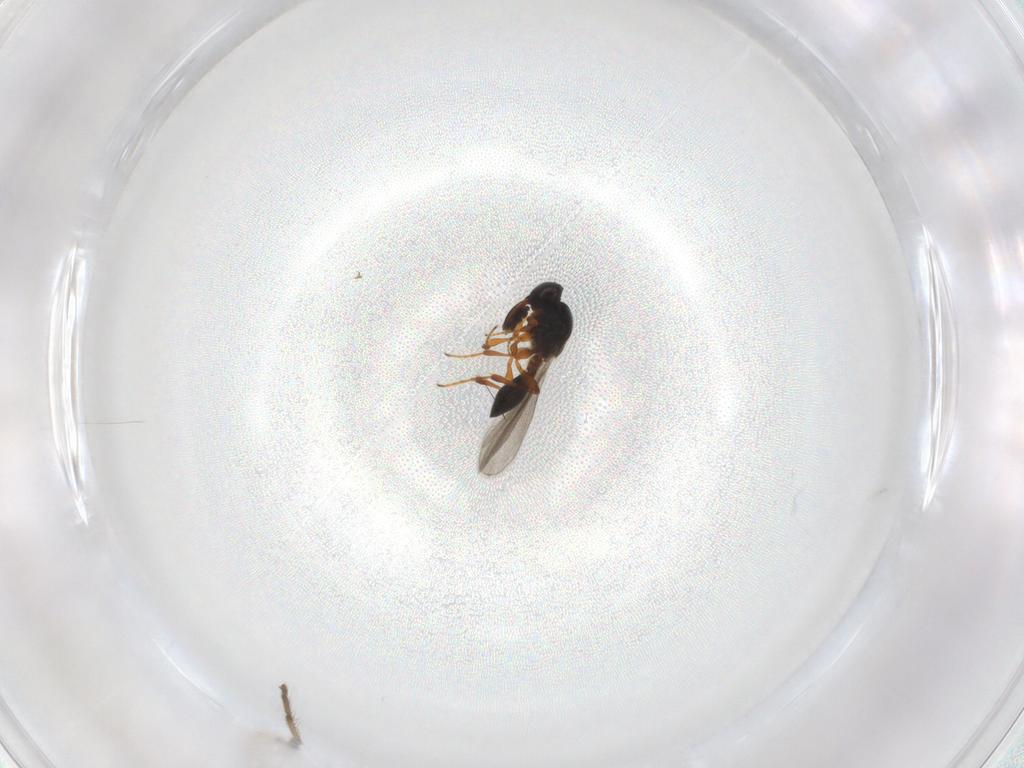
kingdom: Animalia
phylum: Arthropoda
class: Insecta
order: Hymenoptera
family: Platygastridae
